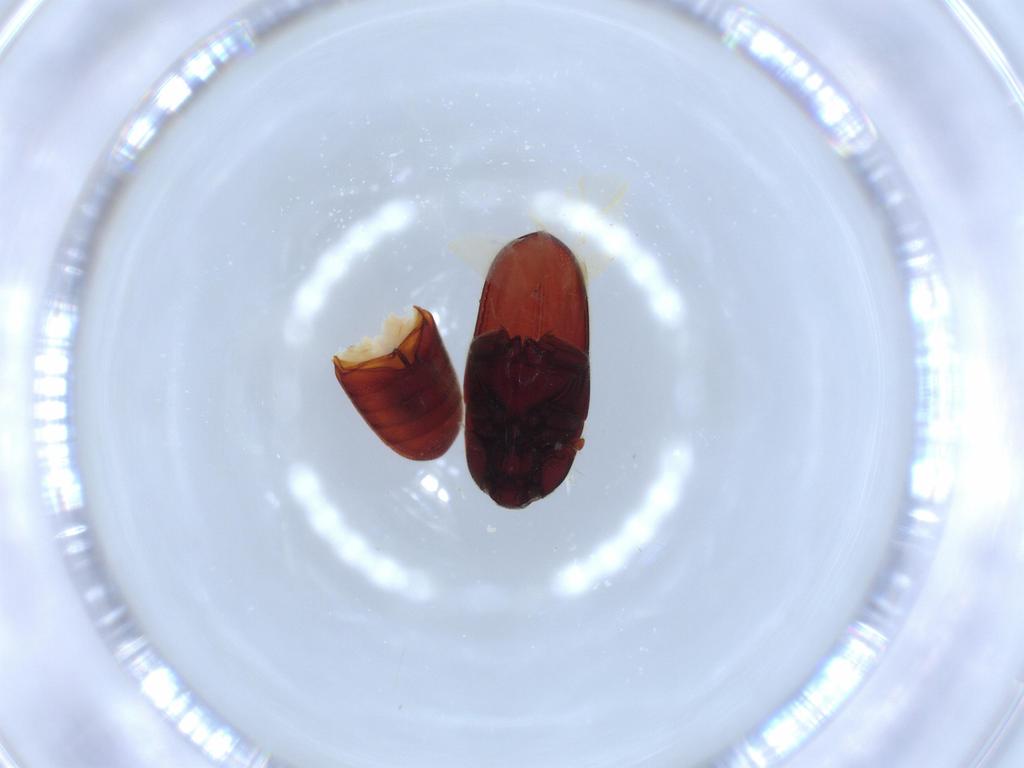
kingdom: Animalia
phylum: Arthropoda
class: Insecta
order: Coleoptera
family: Throscidae
